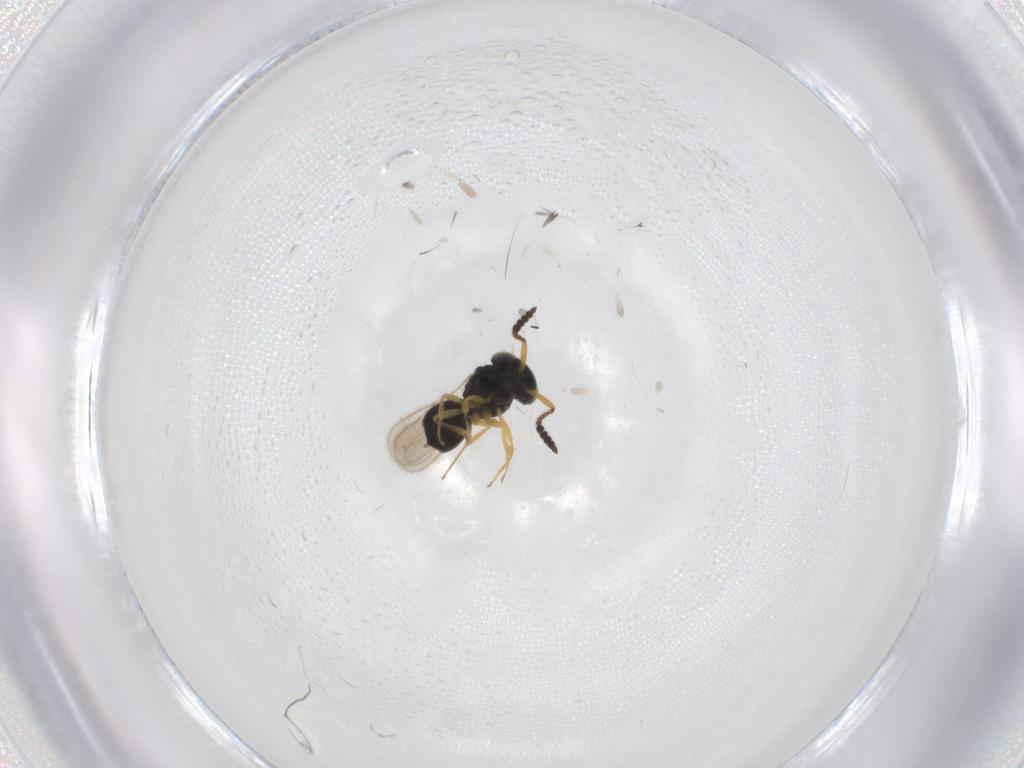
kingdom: Animalia
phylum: Arthropoda
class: Insecta
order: Hymenoptera
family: Scelionidae
